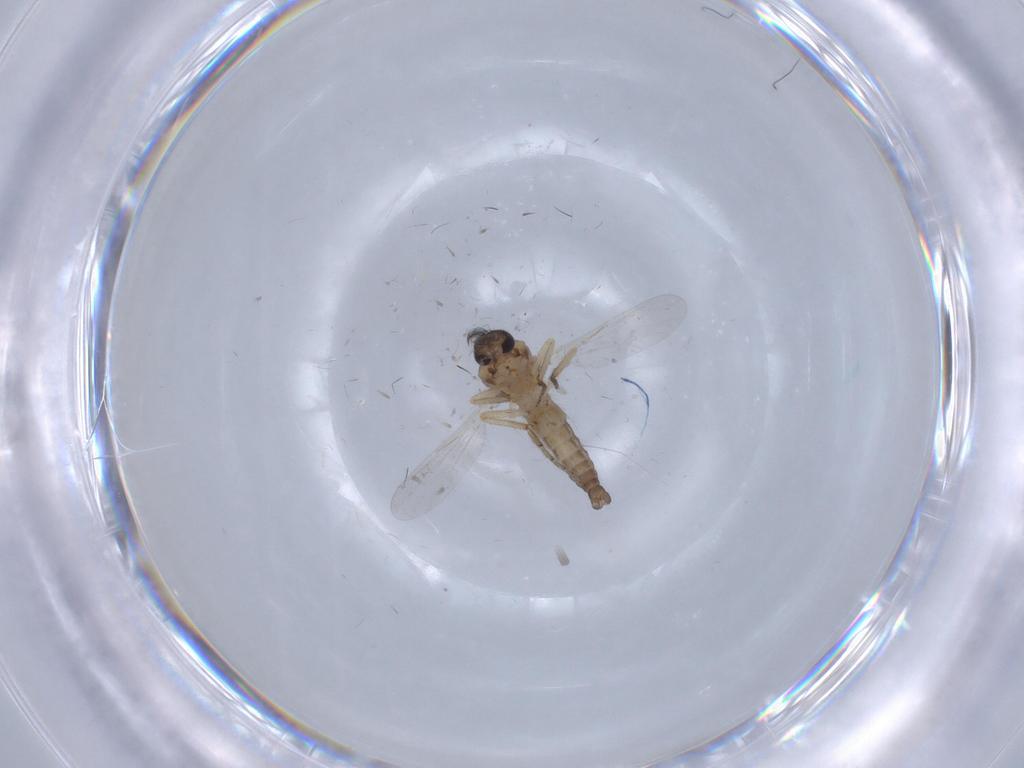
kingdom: Animalia
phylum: Arthropoda
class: Insecta
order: Diptera
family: Ceratopogonidae
